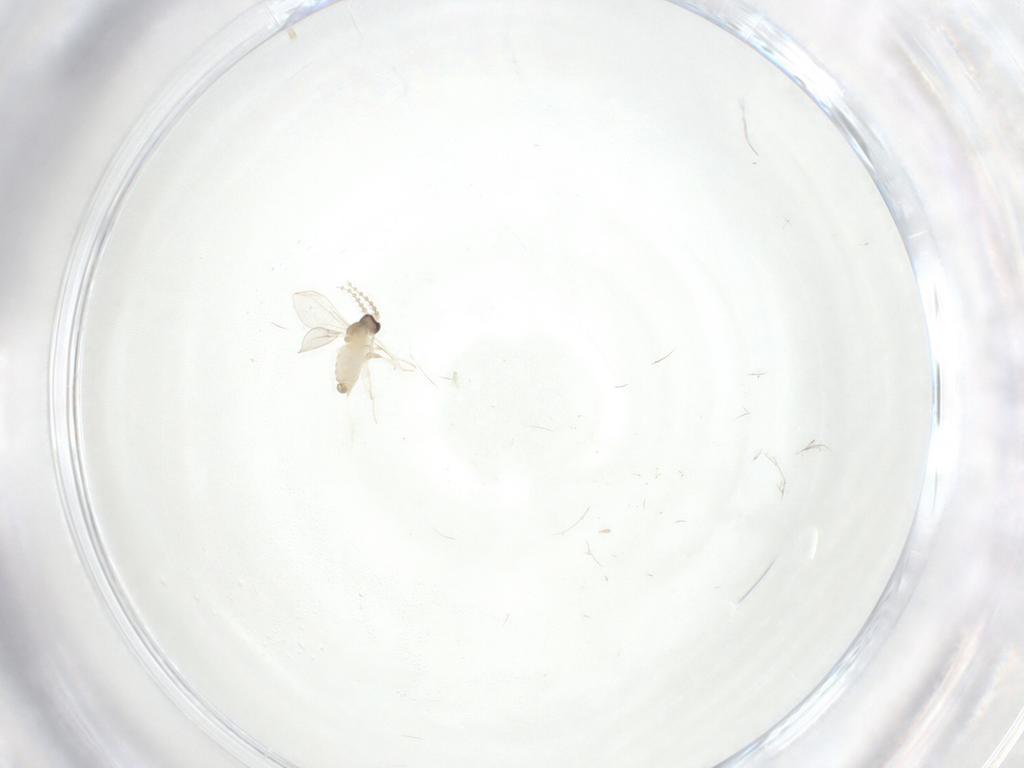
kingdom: Animalia
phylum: Arthropoda
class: Insecta
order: Diptera
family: Cecidomyiidae
